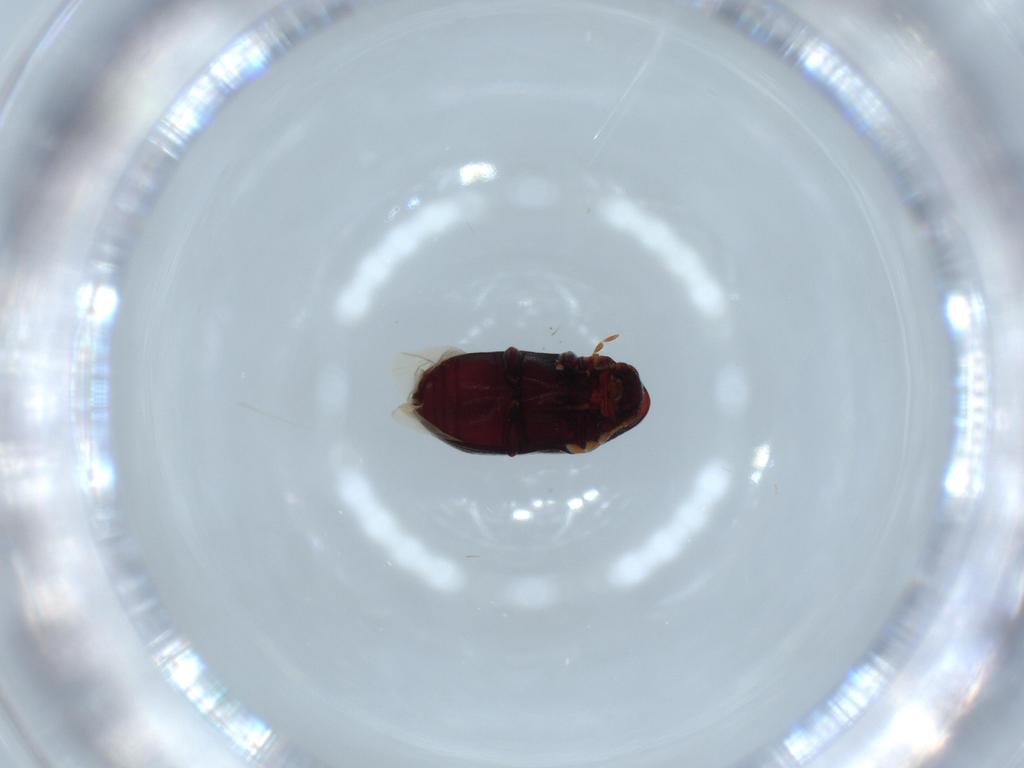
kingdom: Animalia
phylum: Arthropoda
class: Insecta
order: Coleoptera
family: Ptinidae
